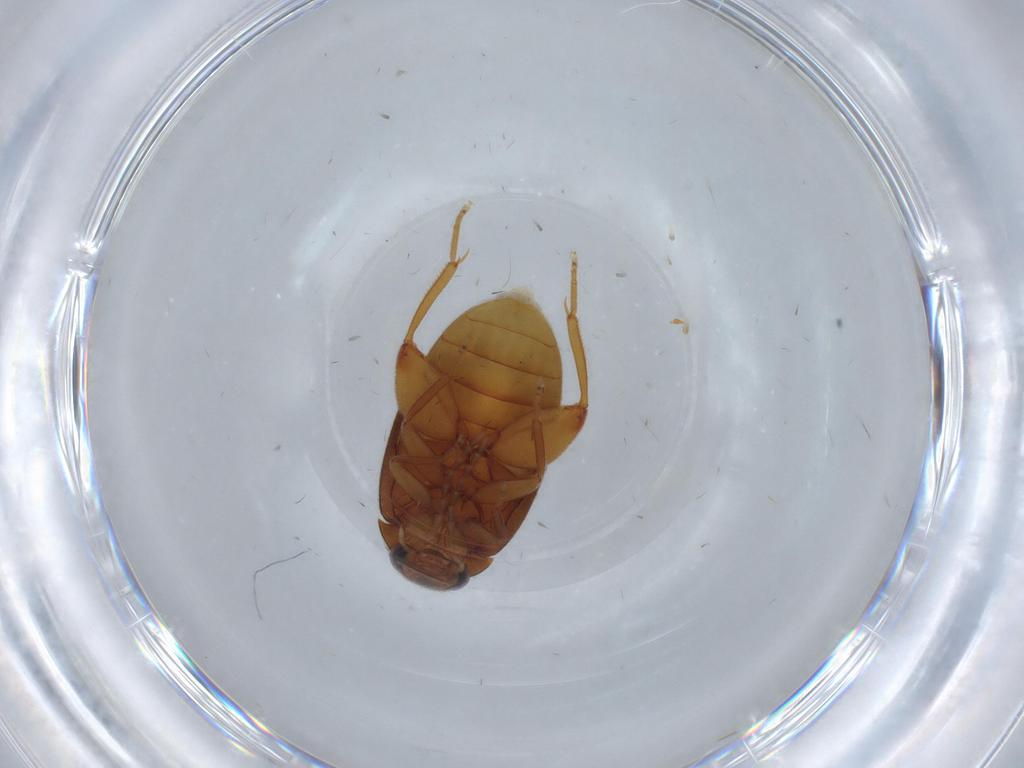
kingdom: Animalia
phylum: Arthropoda
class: Insecta
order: Coleoptera
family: Scirtidae
